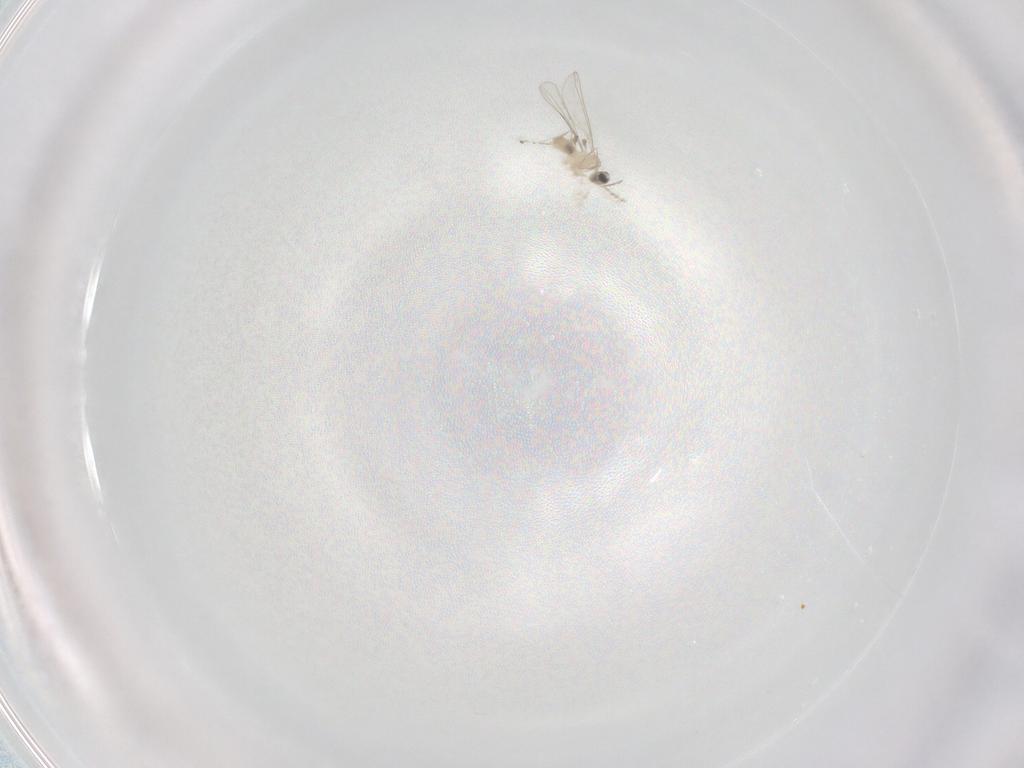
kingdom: Animalia
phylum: Arthropoda
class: Insecta
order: Diptera
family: Cecidomyiidae
